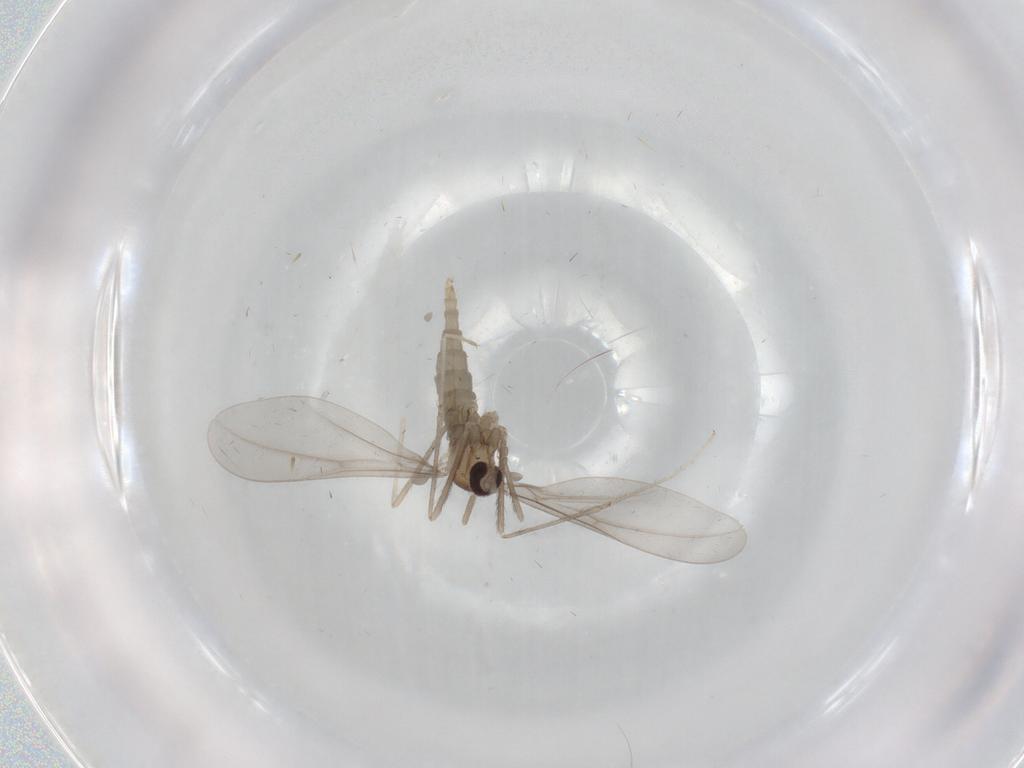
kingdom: Animalia
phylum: Arthropoda
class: Insecta
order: Diptera
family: Cecidomyiidae
